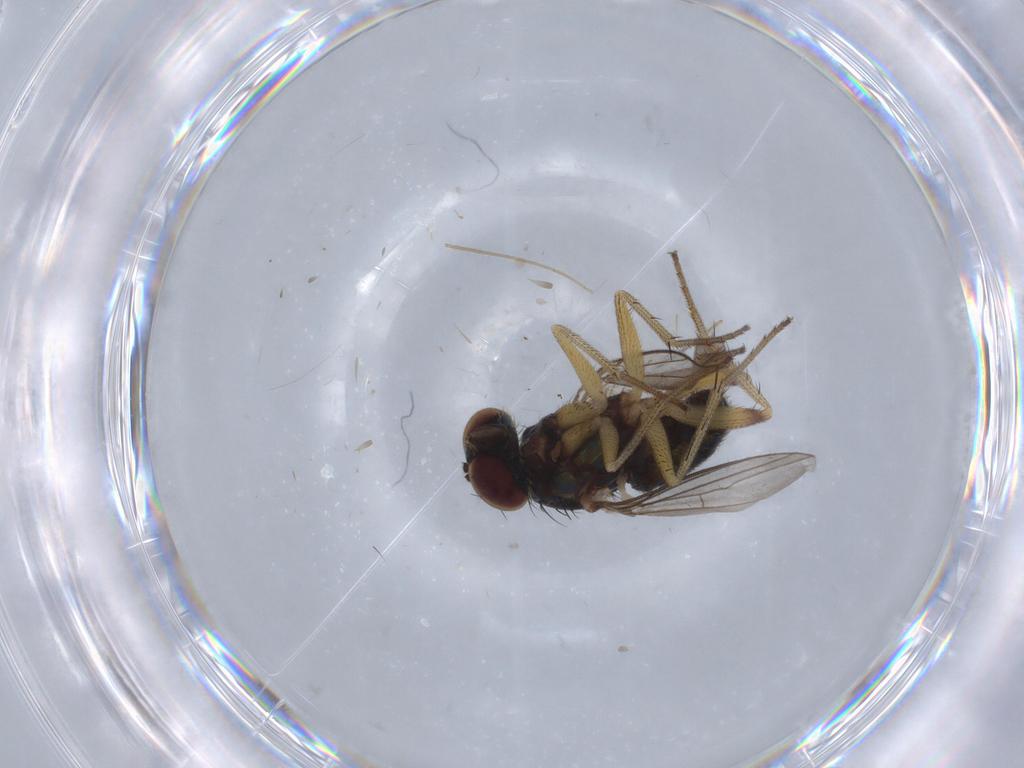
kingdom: Animalia
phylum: Arthropoda
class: Insecta
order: Diptera
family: Dolichopodidae
